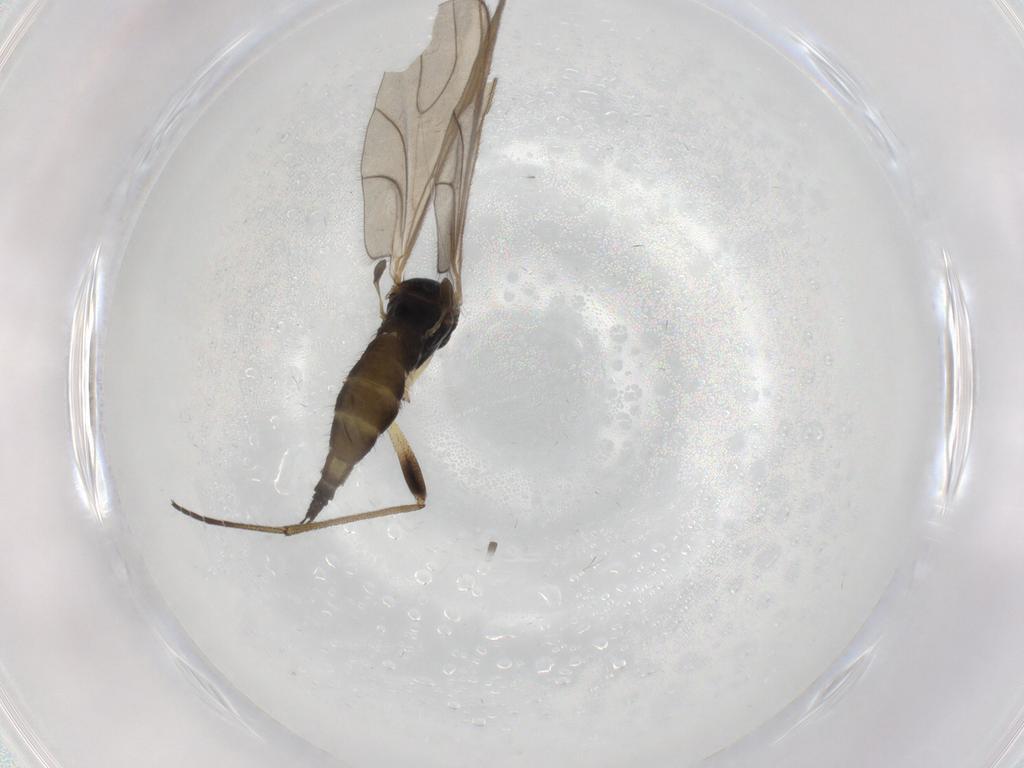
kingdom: Animalia
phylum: Arthropoda
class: Insecta
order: Diptera
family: Sciaridae
